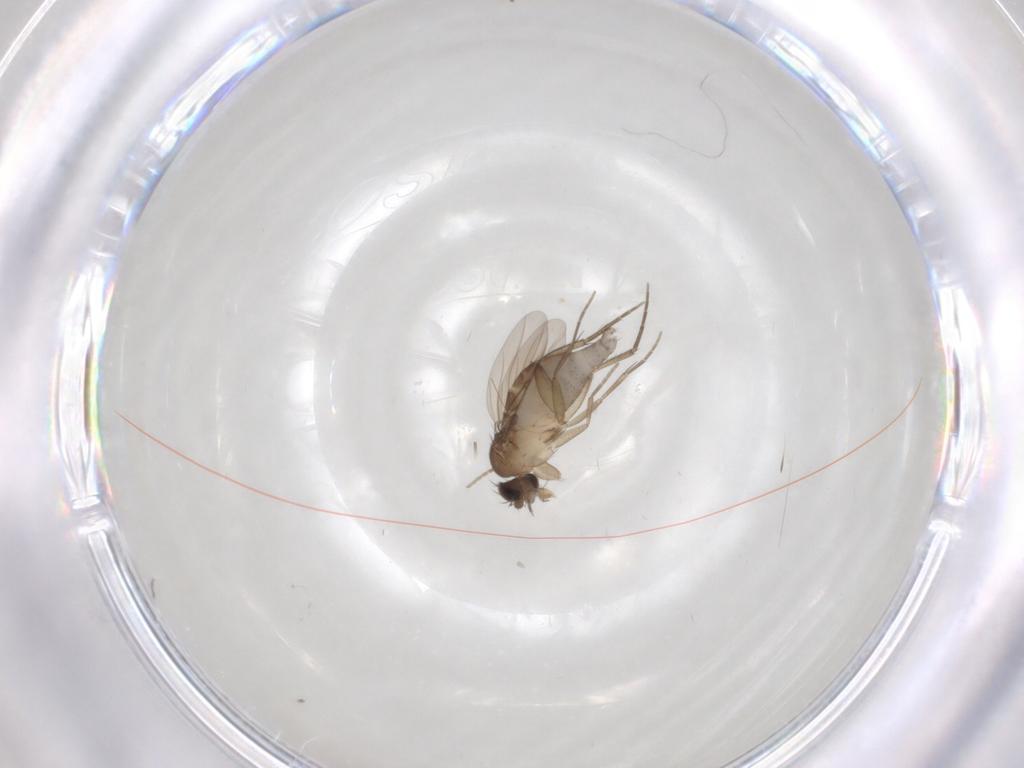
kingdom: Animalia
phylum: Arthropoda
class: Insecta
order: Diptera
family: Phoridae
